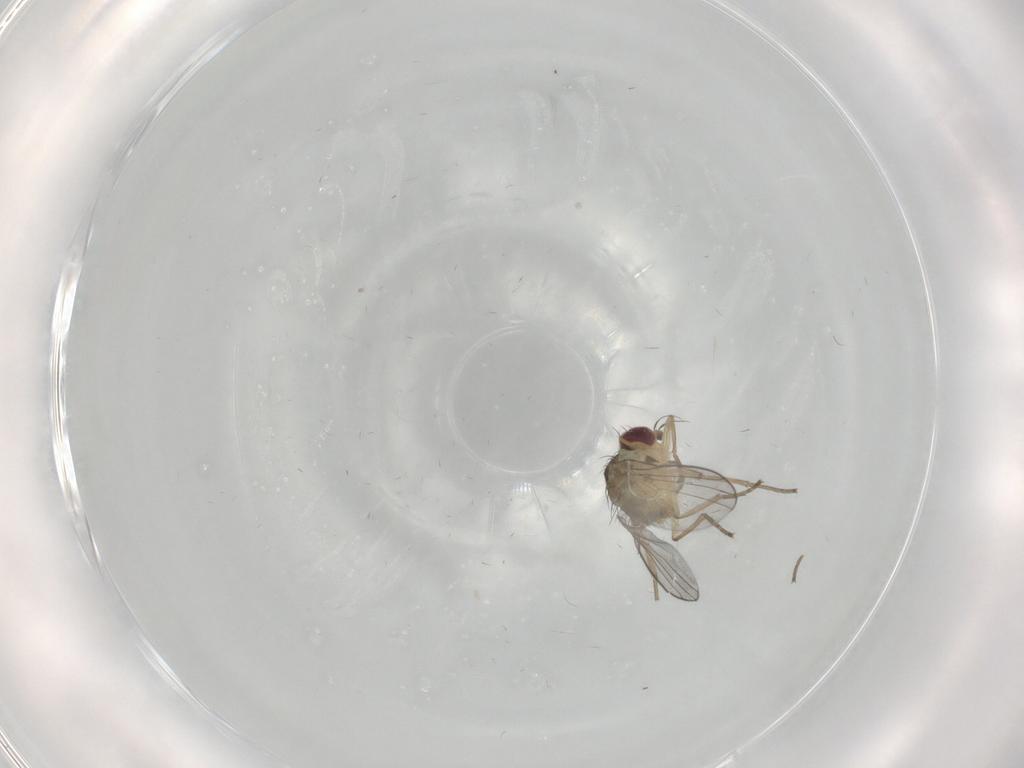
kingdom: Animalia
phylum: Arthropoda
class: Insecta
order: Diptera
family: Agromyzidae
